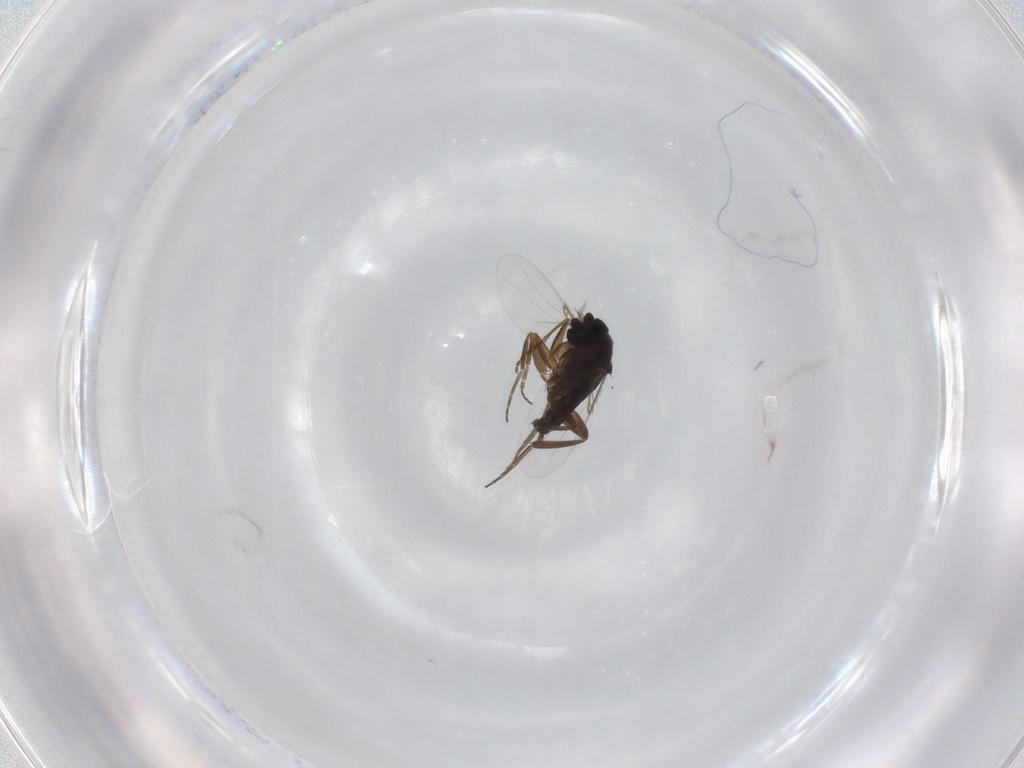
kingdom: Animalia
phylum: Arthropoda
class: Insecta
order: Diptera
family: Phoridae
